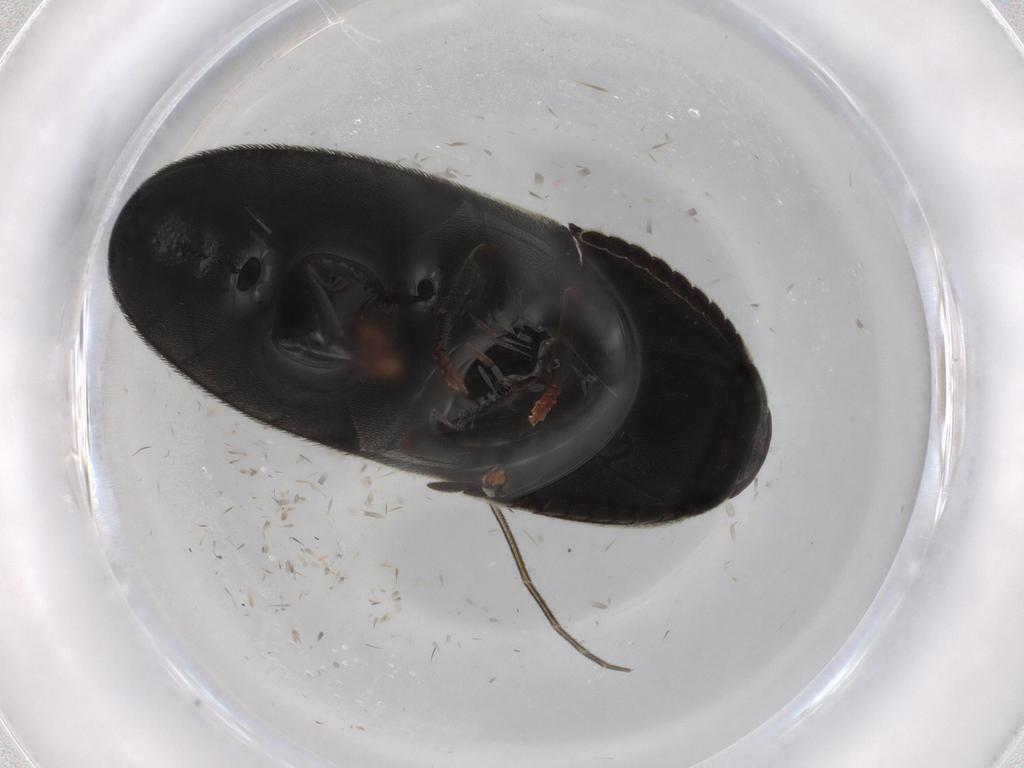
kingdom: Animalia
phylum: Arthropoda
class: Insecta
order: Coleoptera
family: Eucnemidae
